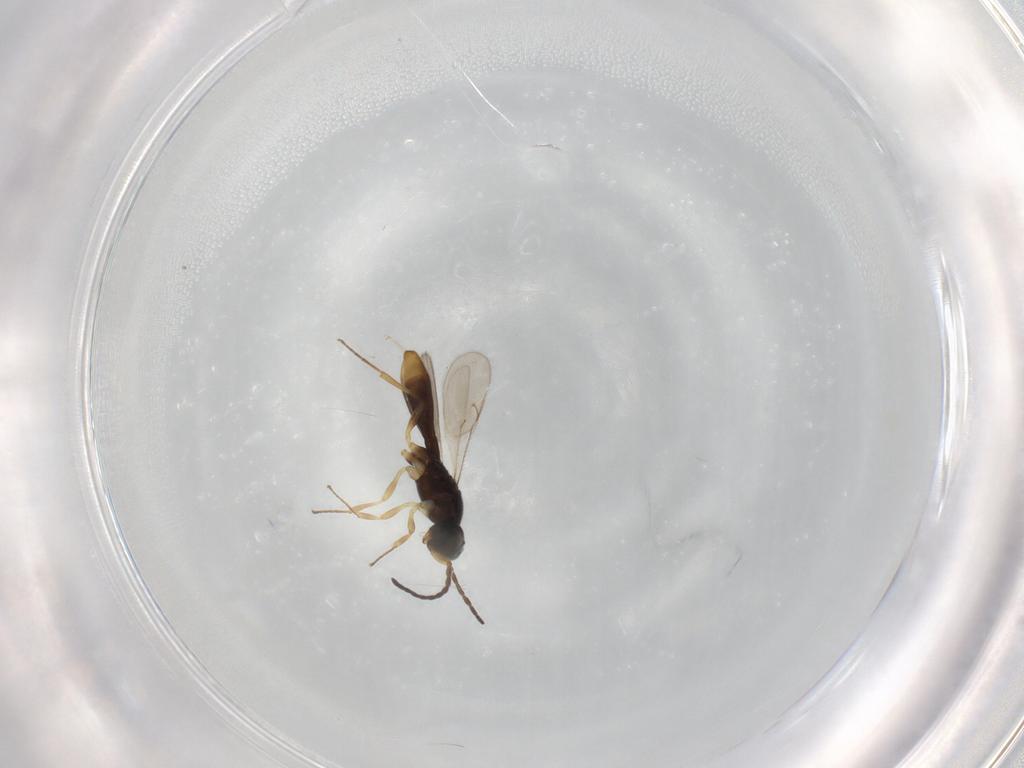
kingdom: Animalia
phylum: Arthropoda
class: Insecta
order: Hymenoptera
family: Scelionidae
